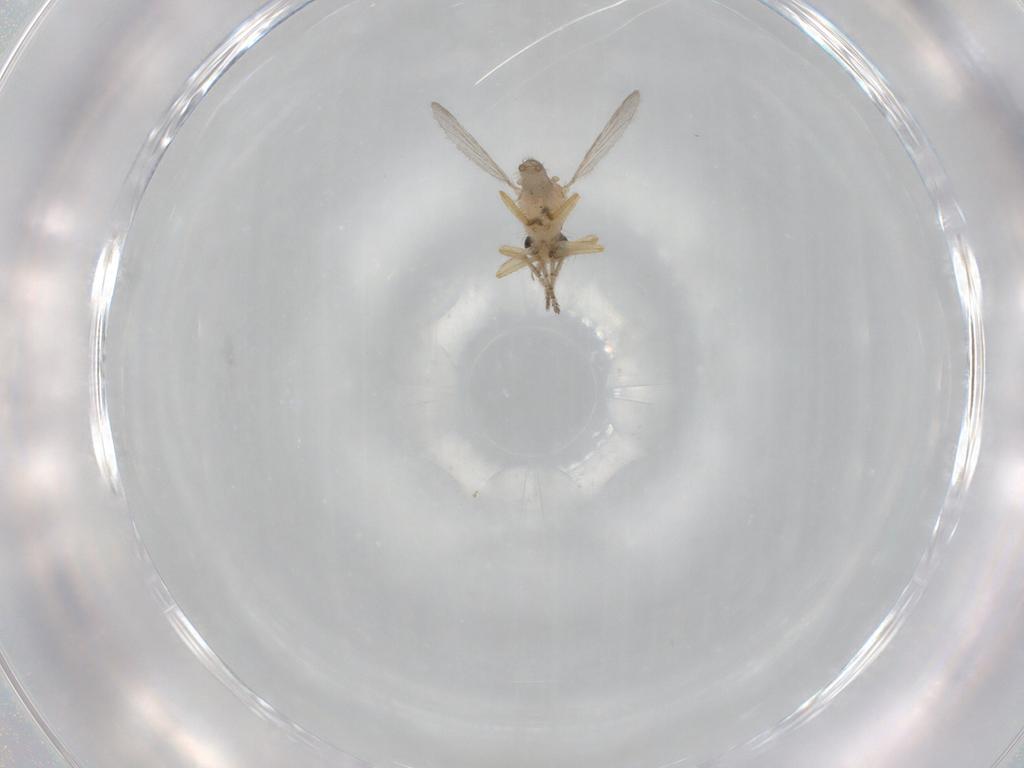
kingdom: Animalia
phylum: Arthropoda
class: Insecta
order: Diptera
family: Ceratopogonidae
